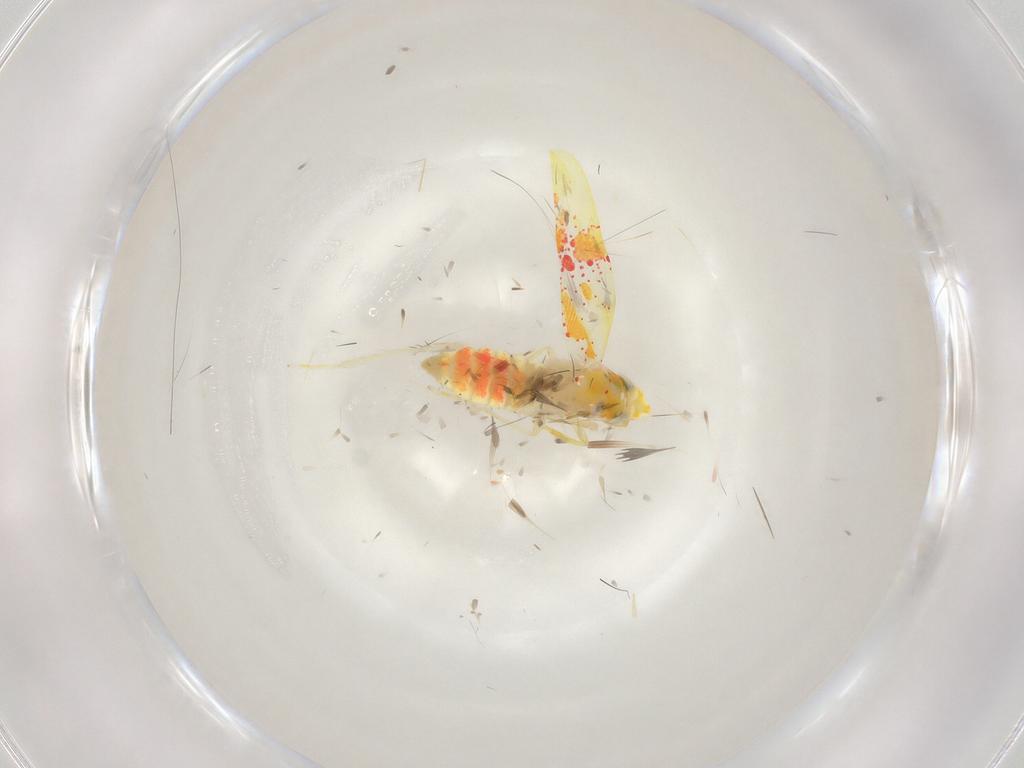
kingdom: Animalia
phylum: Arthropoda
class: Insecta
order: Hemiptera
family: Cicadellidae
